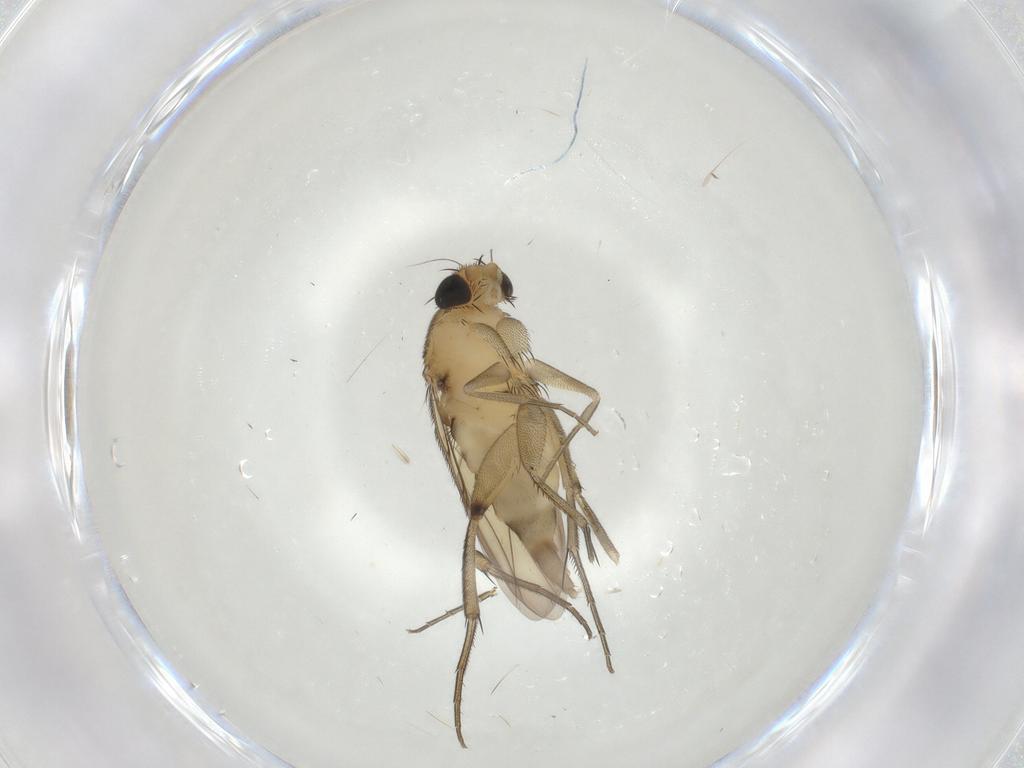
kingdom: Animalia
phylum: Arthropoda
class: Insecta
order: Diptera
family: Phoridae
